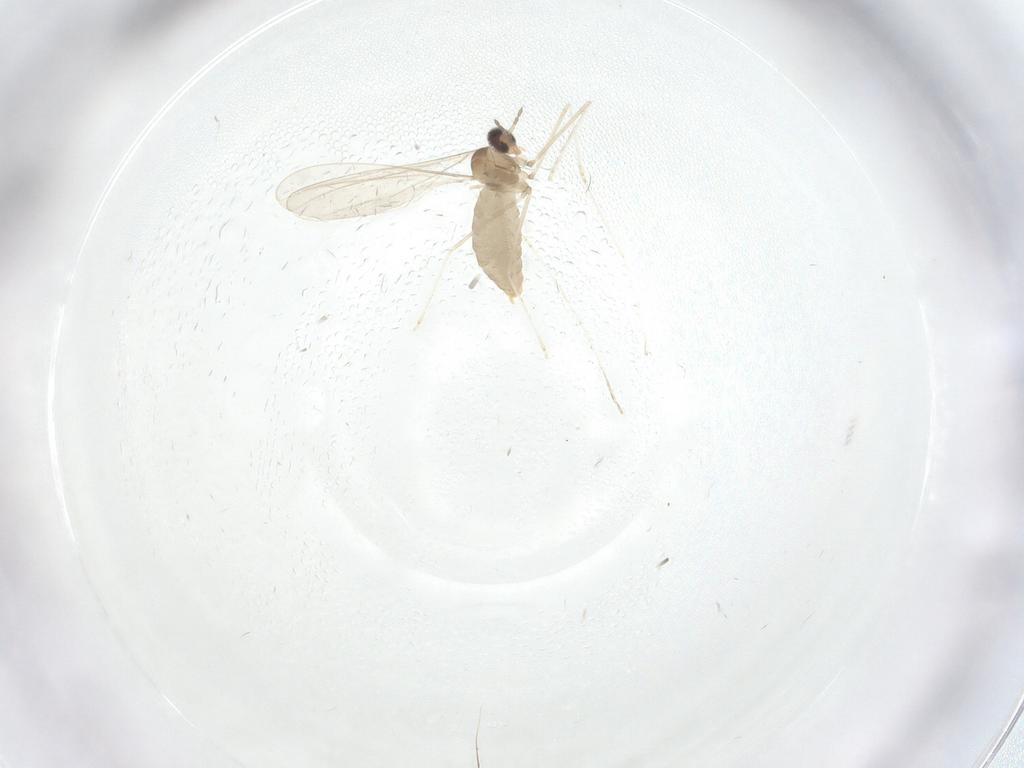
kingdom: Animalia
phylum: Arthropoda
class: Insecta
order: Diptera
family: Cecidomyiidae
